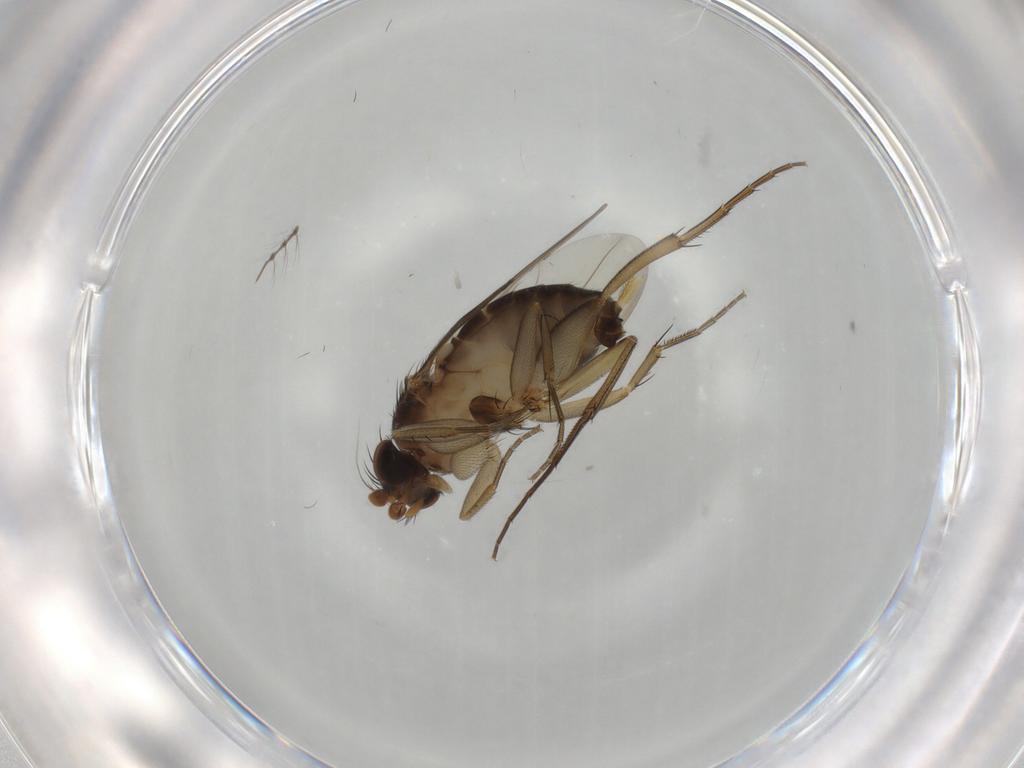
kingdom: Animalia
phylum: Arthropoda
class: Insecta
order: Diptera
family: Phoridae
